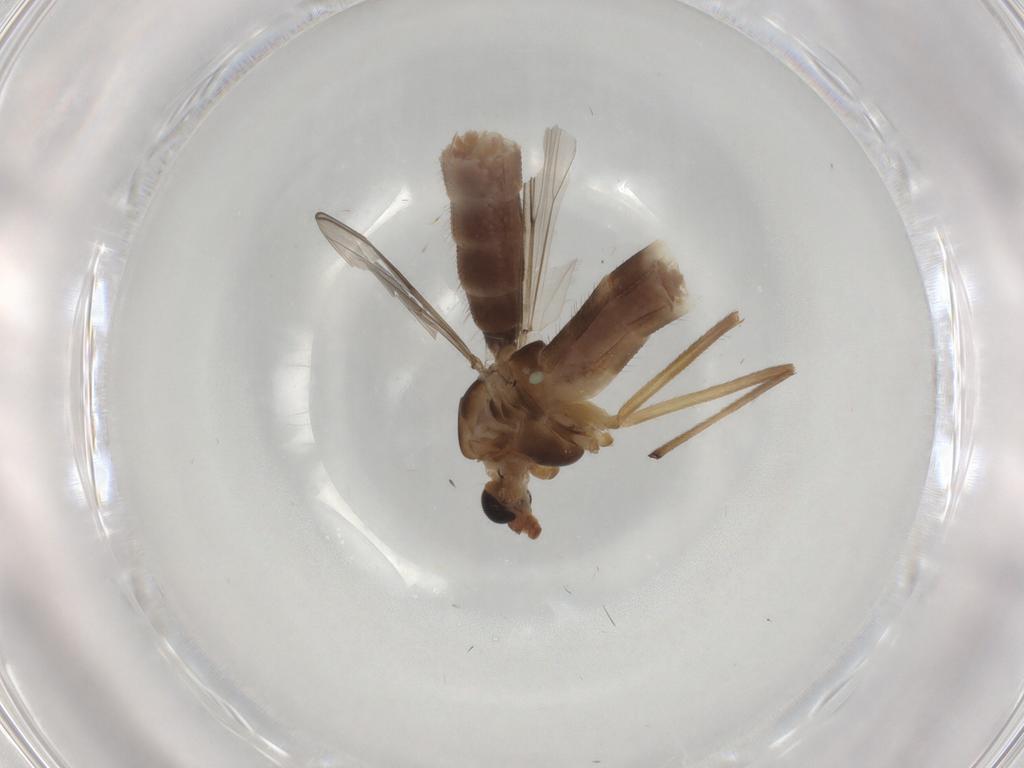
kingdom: Animalia
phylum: Arthropoda
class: Insecta
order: Diptera
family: Chironomidae
